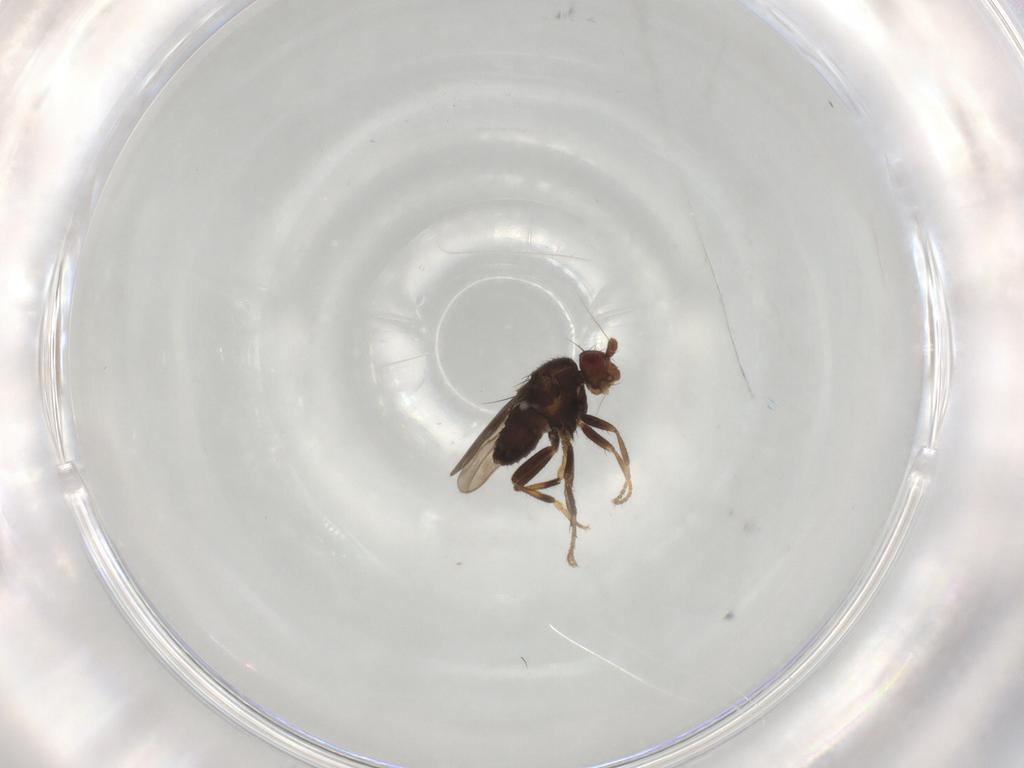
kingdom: Animalia
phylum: Arthropoda
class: Insecta
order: Diptera
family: Sphaeroceridae
